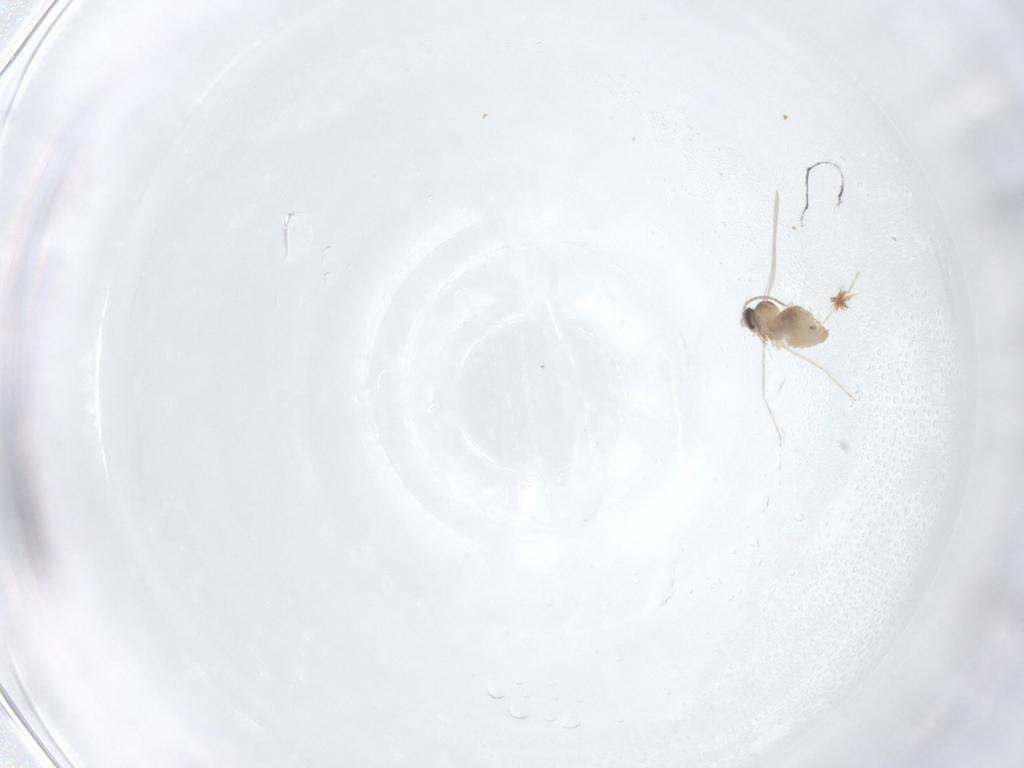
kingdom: Animalia
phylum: Arthropoda
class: Insecta
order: Diptera
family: Cecidomyiidae
